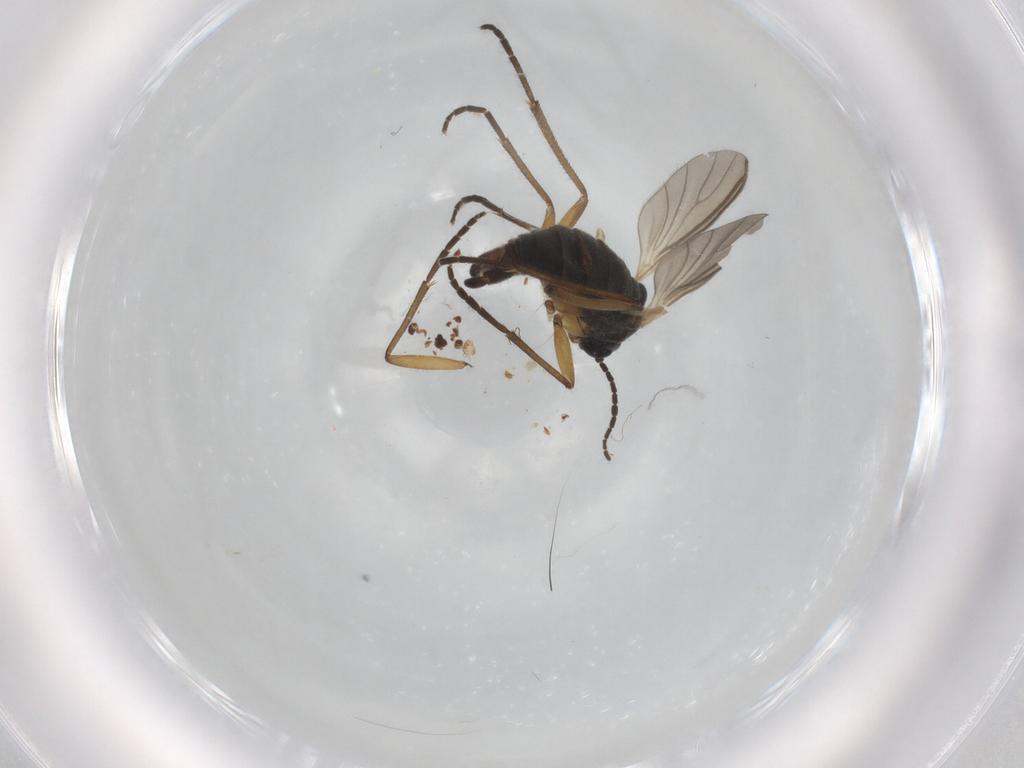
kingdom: Animalia
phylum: Arthropoda
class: Insecta
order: Diptera
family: Sciaridae
